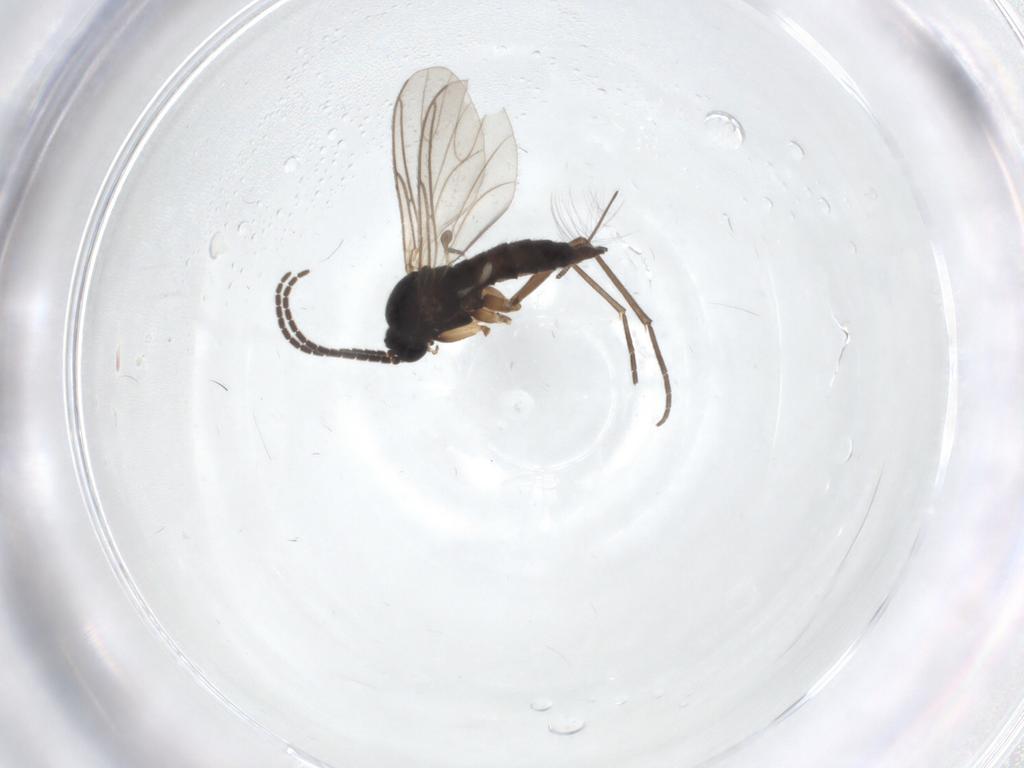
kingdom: Animalia
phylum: Arthropoda
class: Insecta
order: Diptera
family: Sciaridae
